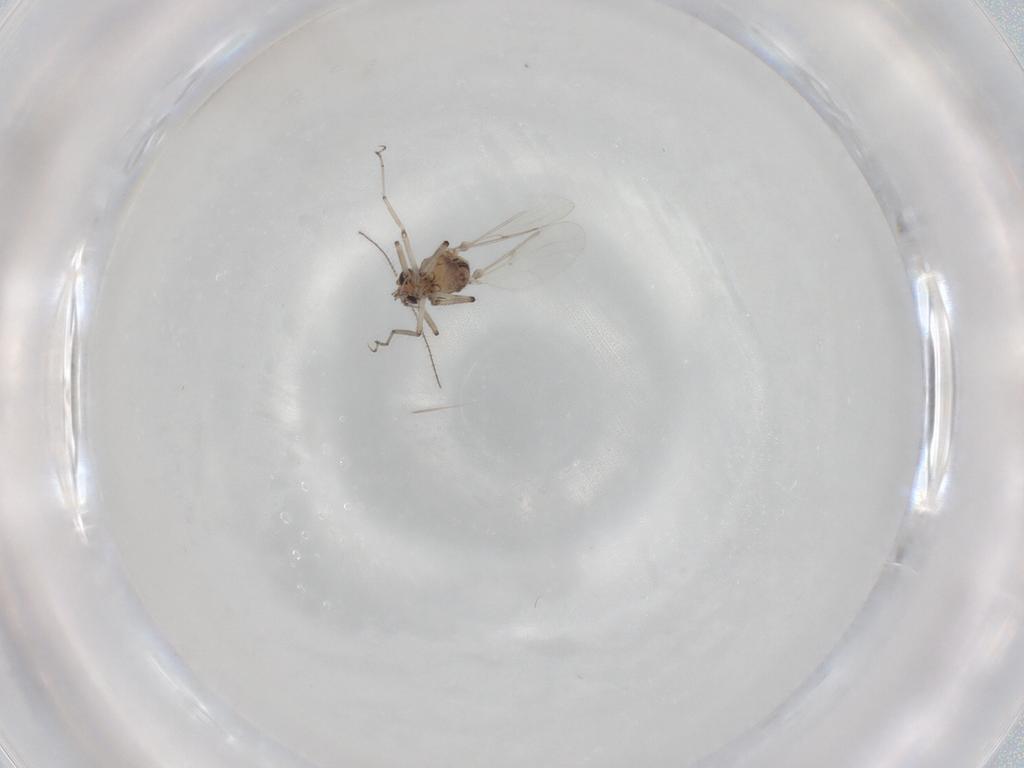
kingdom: Animalia
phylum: Arthropoda
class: Insecta
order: Diptera
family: Ceratopogonidae
